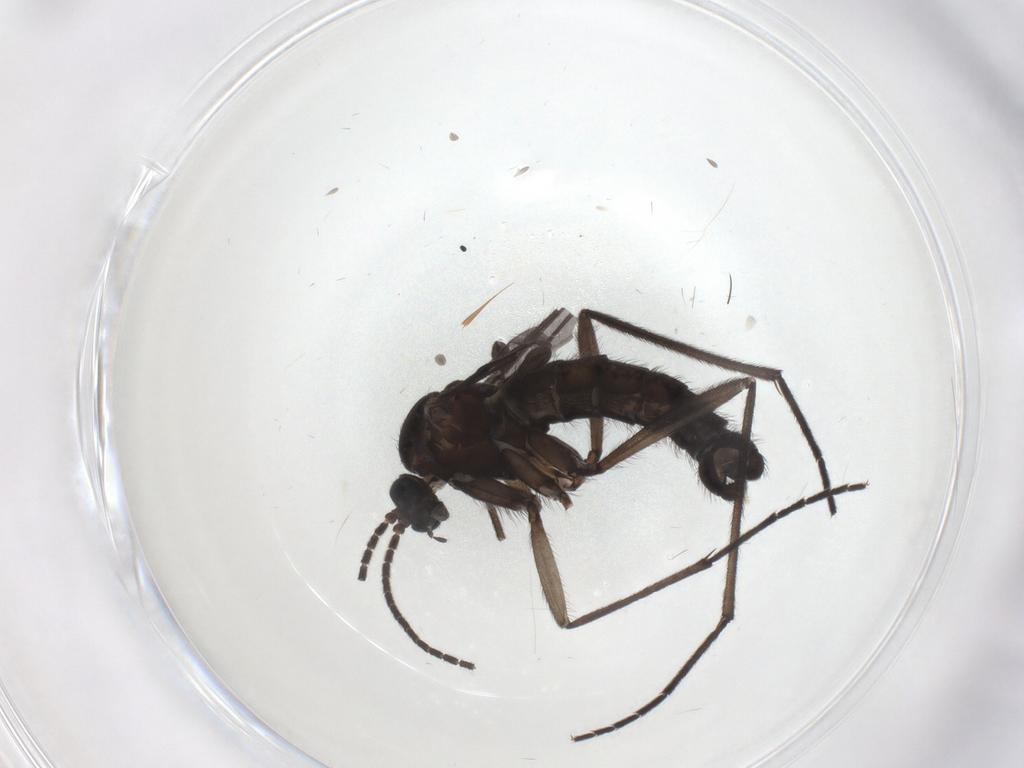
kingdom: Animalia
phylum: Arthropoda
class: Insecta
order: Diptera
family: Sciaridae
